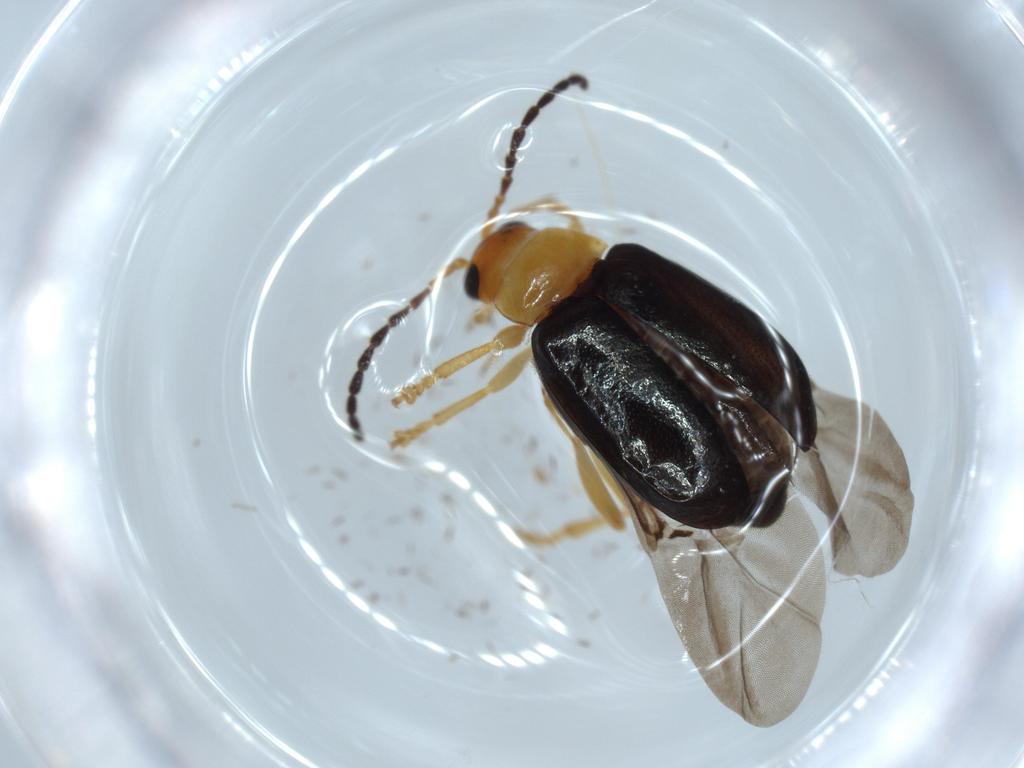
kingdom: Animalia
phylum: Arthropoda
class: Insecta
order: Coleoptera
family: Chrysomelidae
